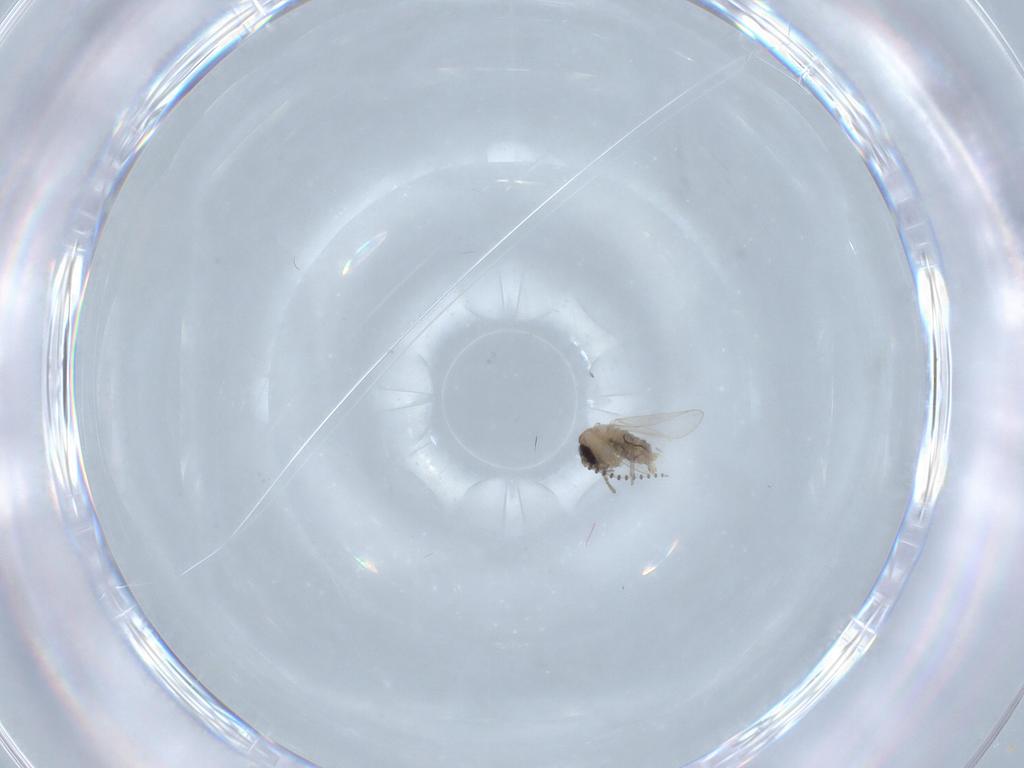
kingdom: Animalia
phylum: Arthropoda
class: Insecta
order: Diptera
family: Psychodidae
